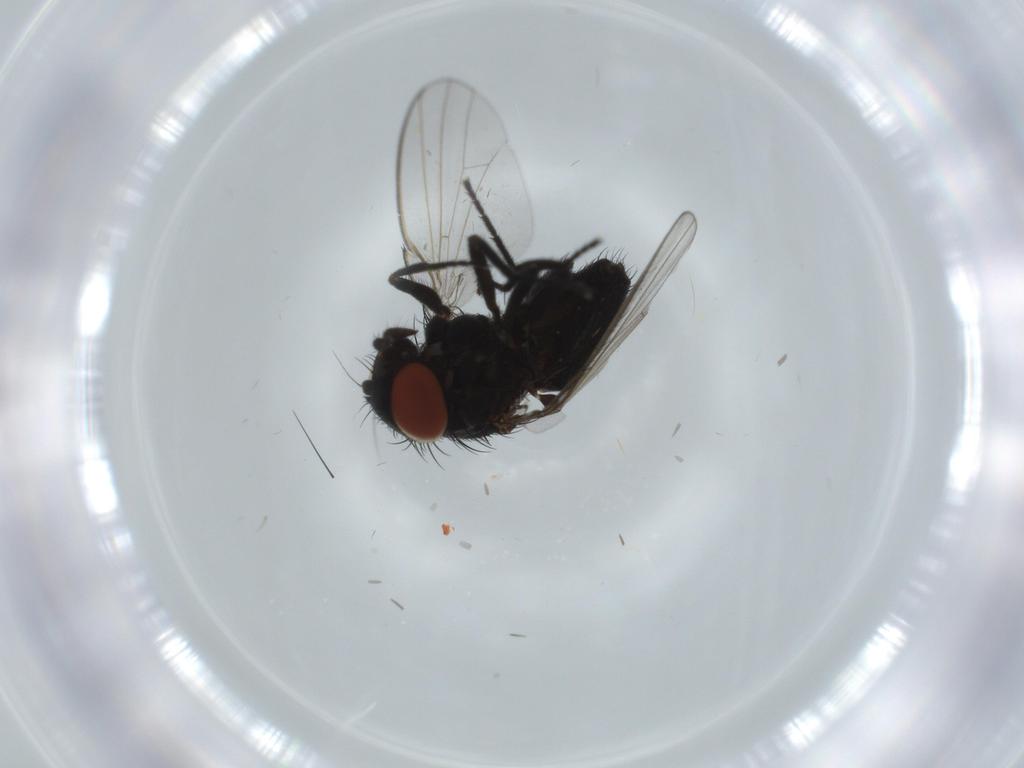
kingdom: Animalia
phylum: Arthropoda
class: Insecta
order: Diptera
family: Milichiidae
